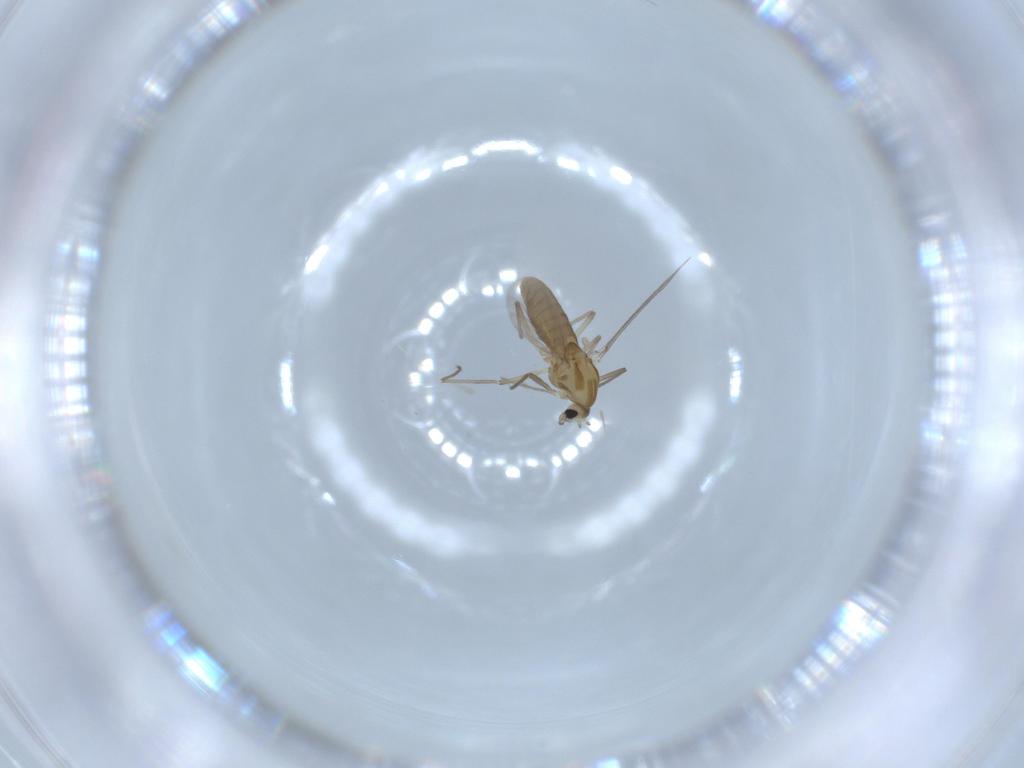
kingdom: Animalia
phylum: Arthropoda
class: Insecta
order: Diptera
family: Chironomidae
